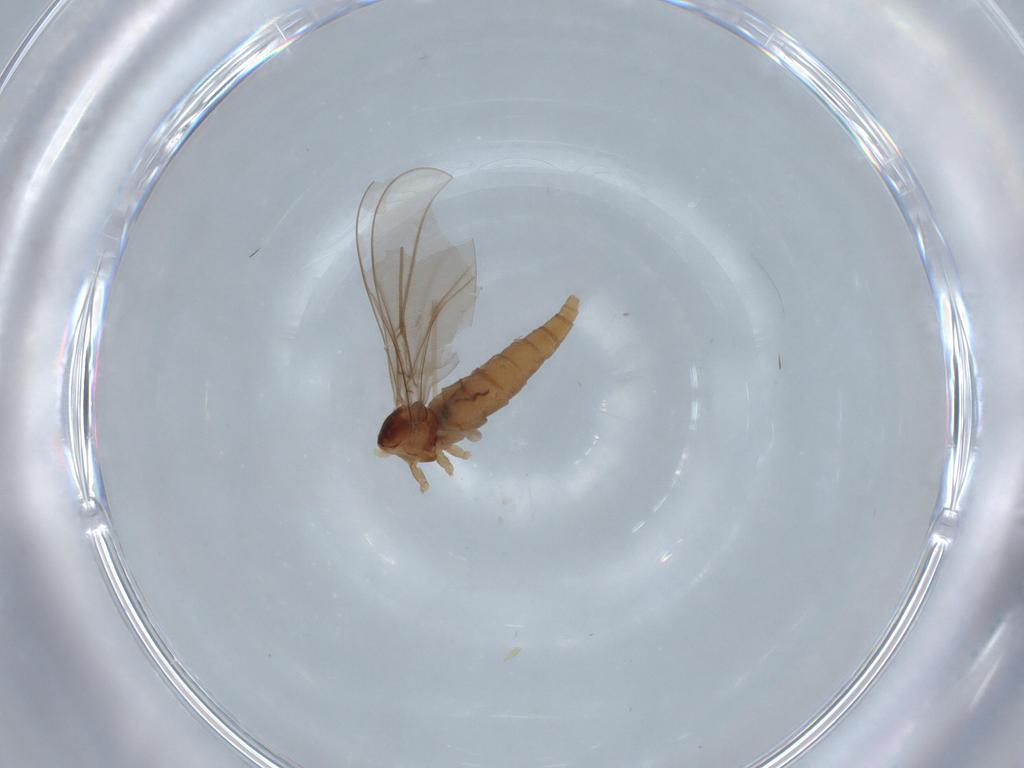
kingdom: Animalia
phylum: Arthropoda
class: Insecta
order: Diptera
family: Cecidomyiidae
